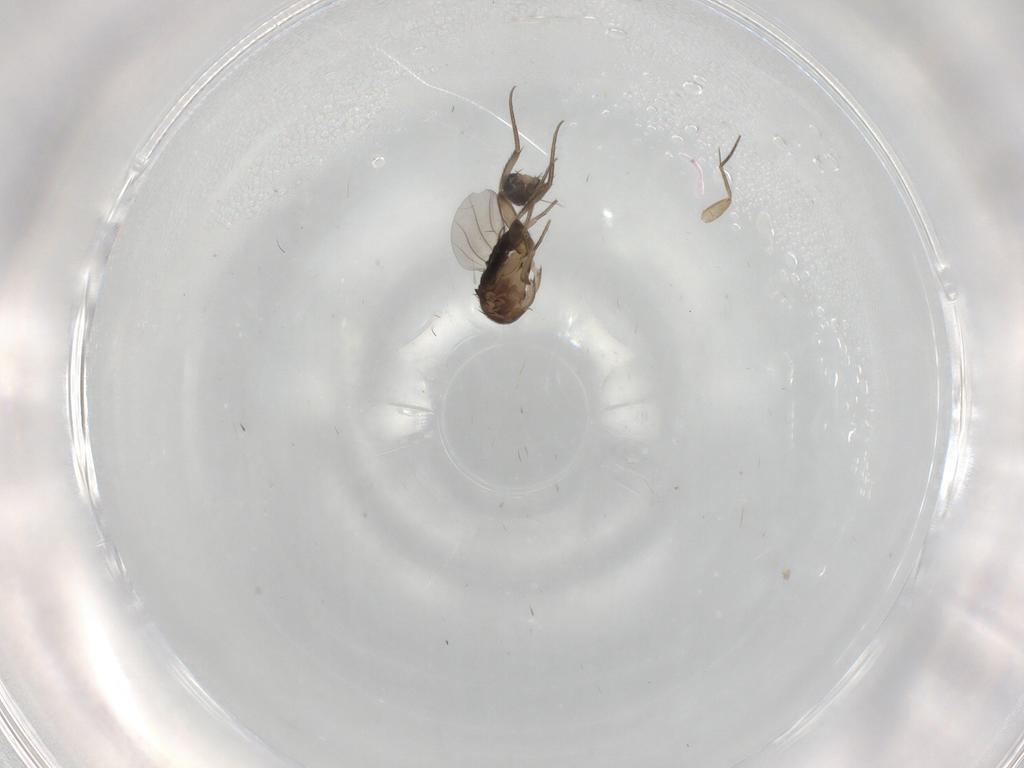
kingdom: Animalia
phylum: Arthropoda
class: Insecta
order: Diptera
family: Phoridae
